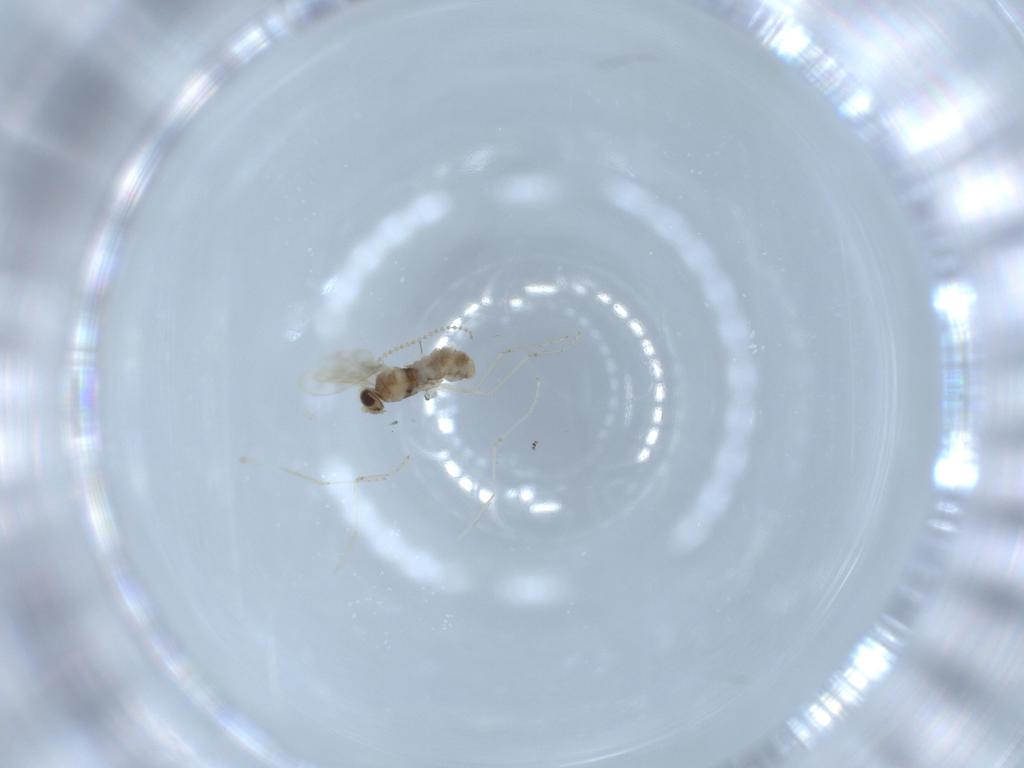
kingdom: Animalia
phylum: Arthropoda
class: Insecta
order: Diptera
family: Cecidomyiidae
